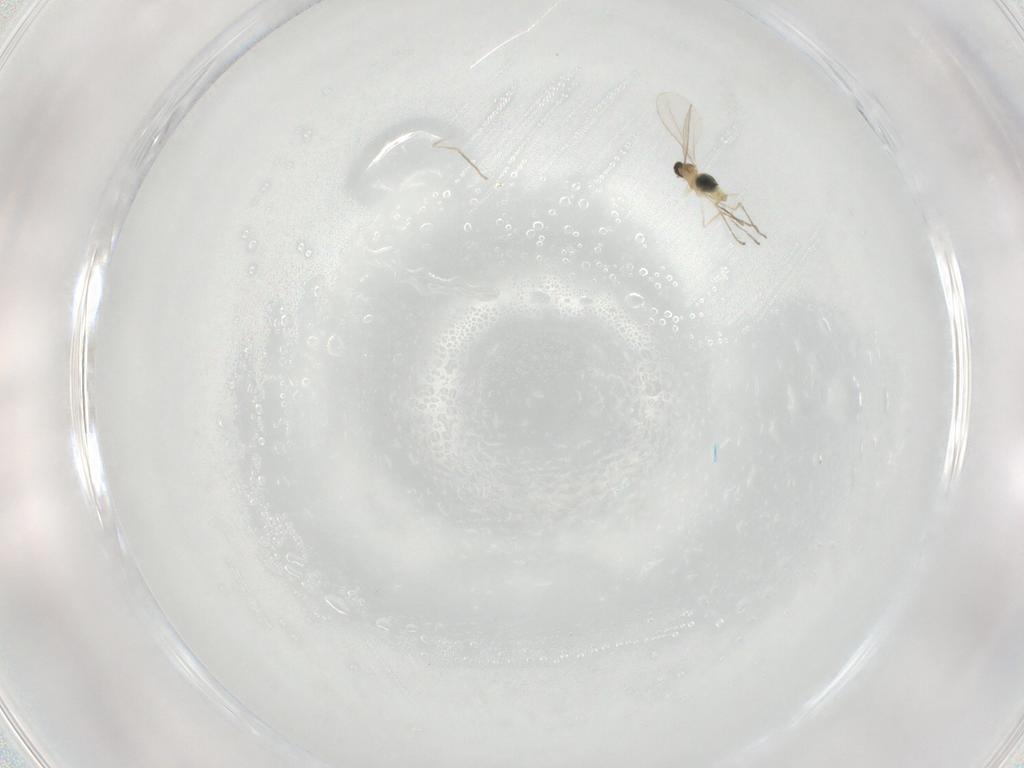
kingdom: Animalia
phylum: Arthropoda
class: Insecta
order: Diptera
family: Cecidomyiidae
